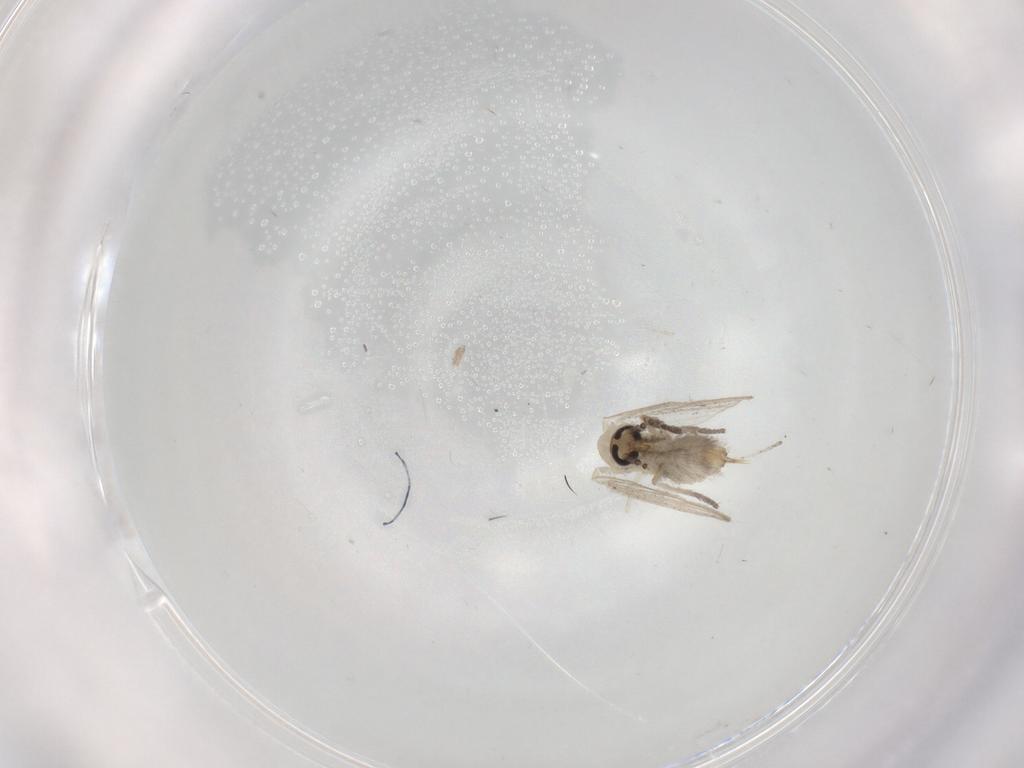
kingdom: Animalia
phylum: Arthropoda
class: Insecta
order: Diptera
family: Psychodidae
